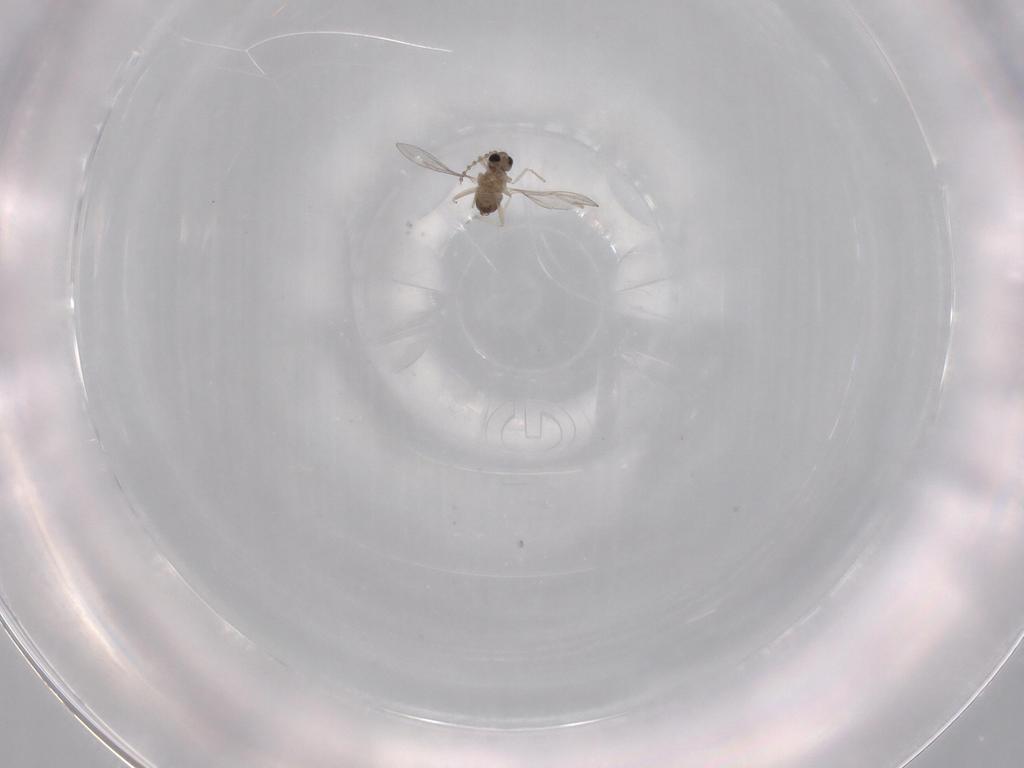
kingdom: Animalia
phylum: Arthropoda
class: Insecta
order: Diptera
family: Cecidomyiidae
